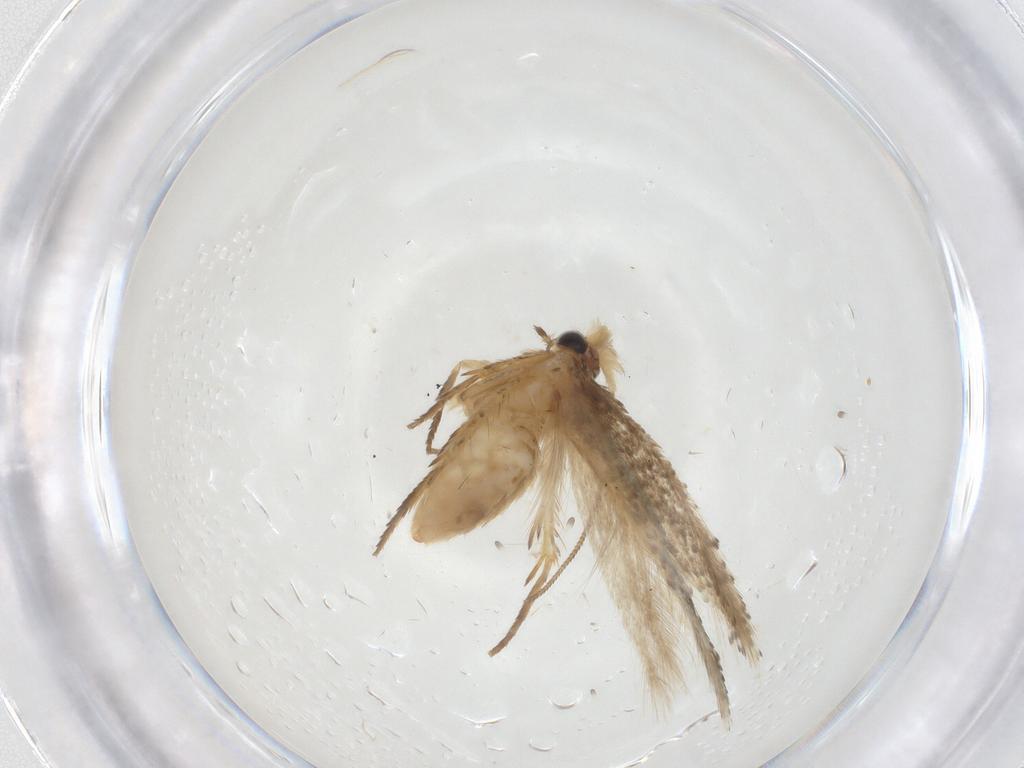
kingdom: Animalia
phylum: Arthropoda
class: Insecta
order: Lepidoptera
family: Nepticulidae
